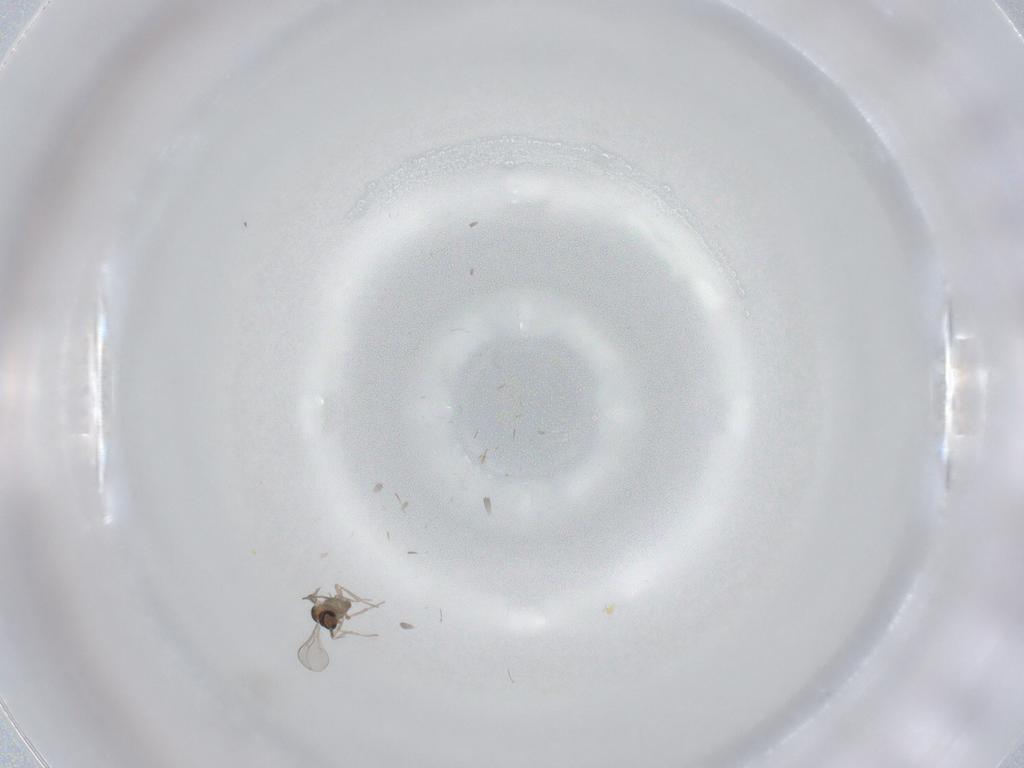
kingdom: Animalia
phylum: Arthropoda
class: Insecta
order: Diptera
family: Cecidomyiidae
